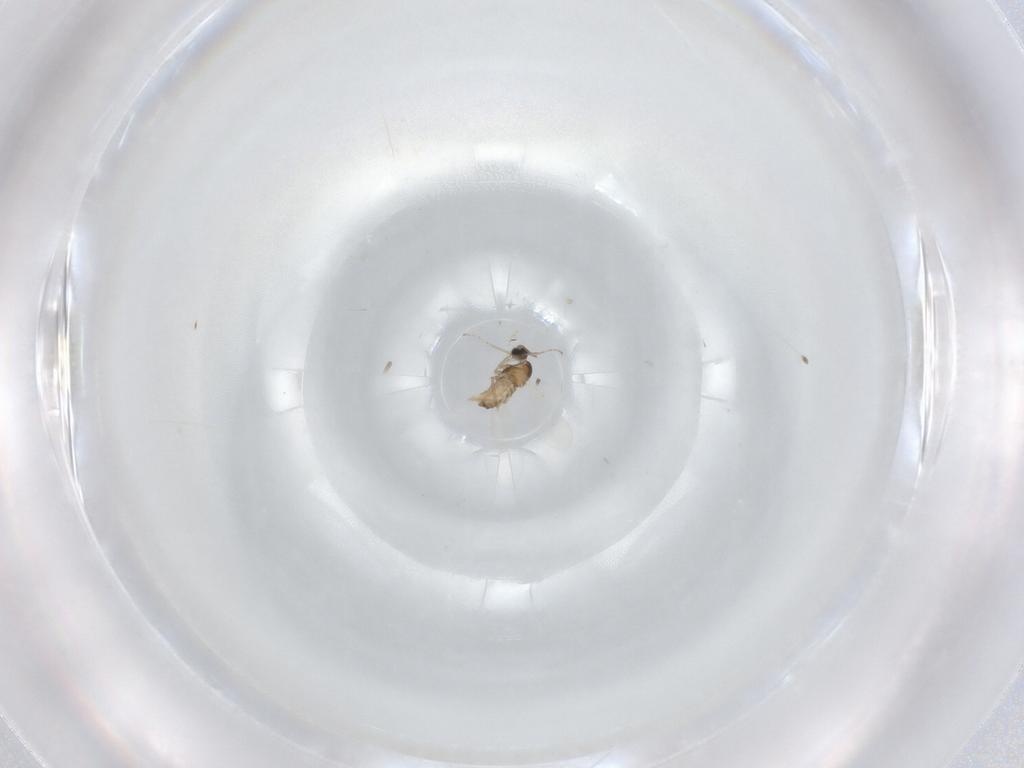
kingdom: Animalia
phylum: Arthropoda
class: Insecta
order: Diptera
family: Cecidomyiidae
